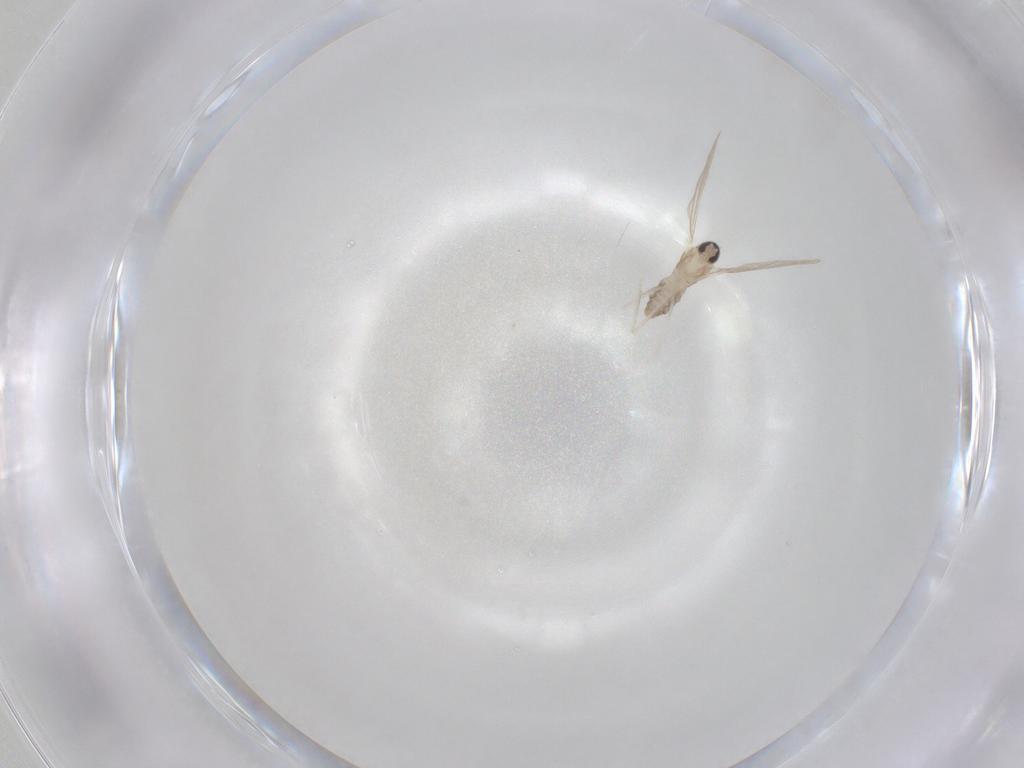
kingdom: Animalia
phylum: Arthropoda
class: Insecta
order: Diptera
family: Cecidomyiidae
